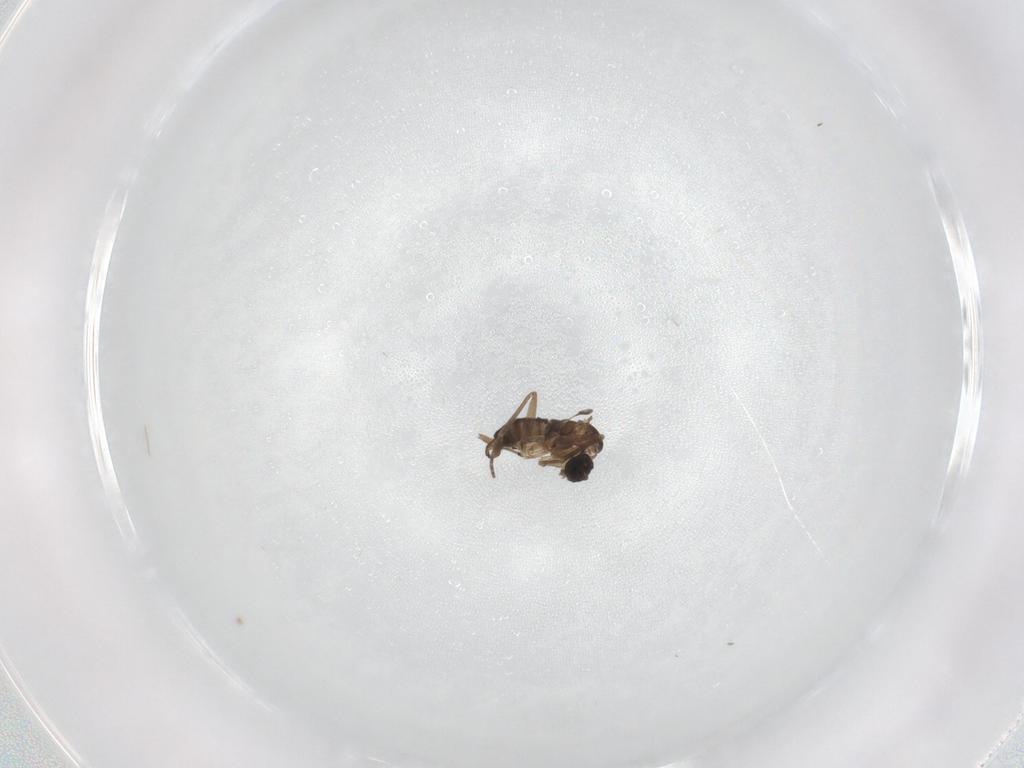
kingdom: Animalia
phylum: Arthropoda
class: Insecta
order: Diptera
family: Sciaridae
